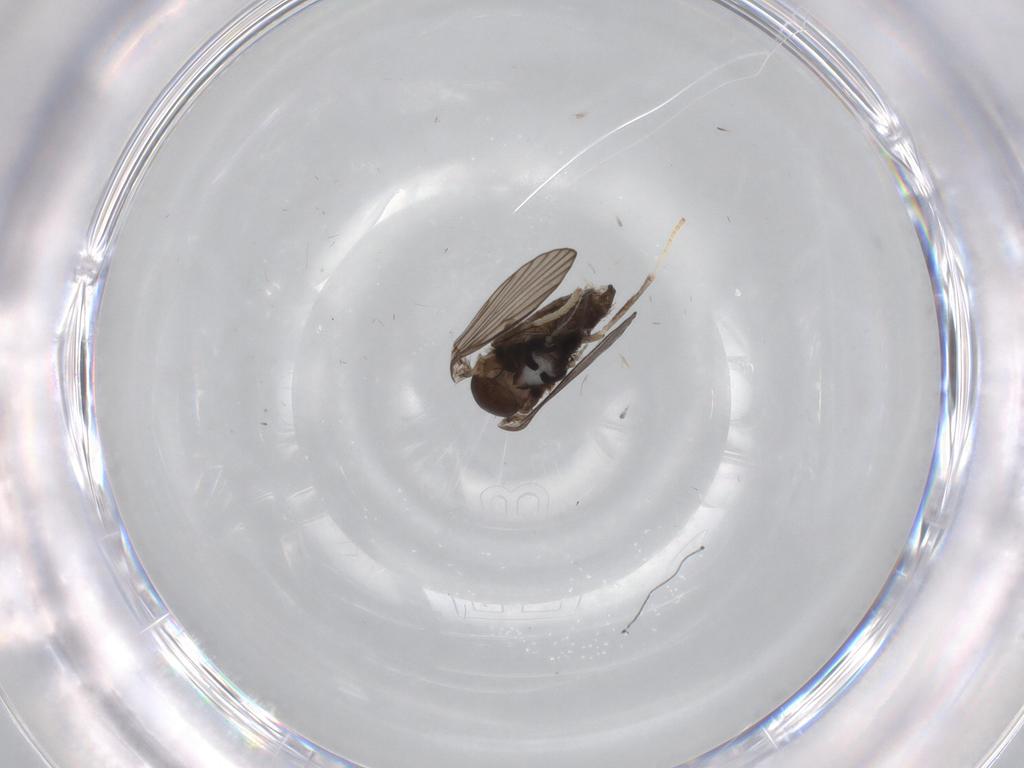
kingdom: Animalia
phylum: Arthropoda
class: Insecta
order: Diptera
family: Psychodidae
